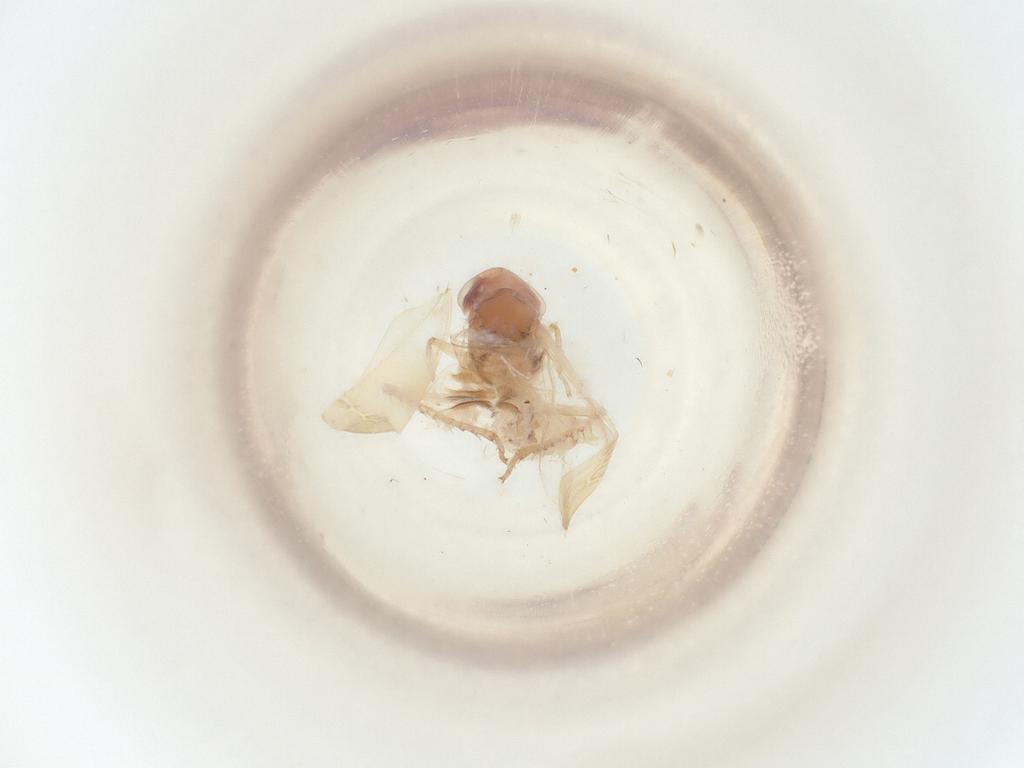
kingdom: Animalia
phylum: Arthropoda
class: Insecta
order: Hemiptera
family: Cicadellidae
